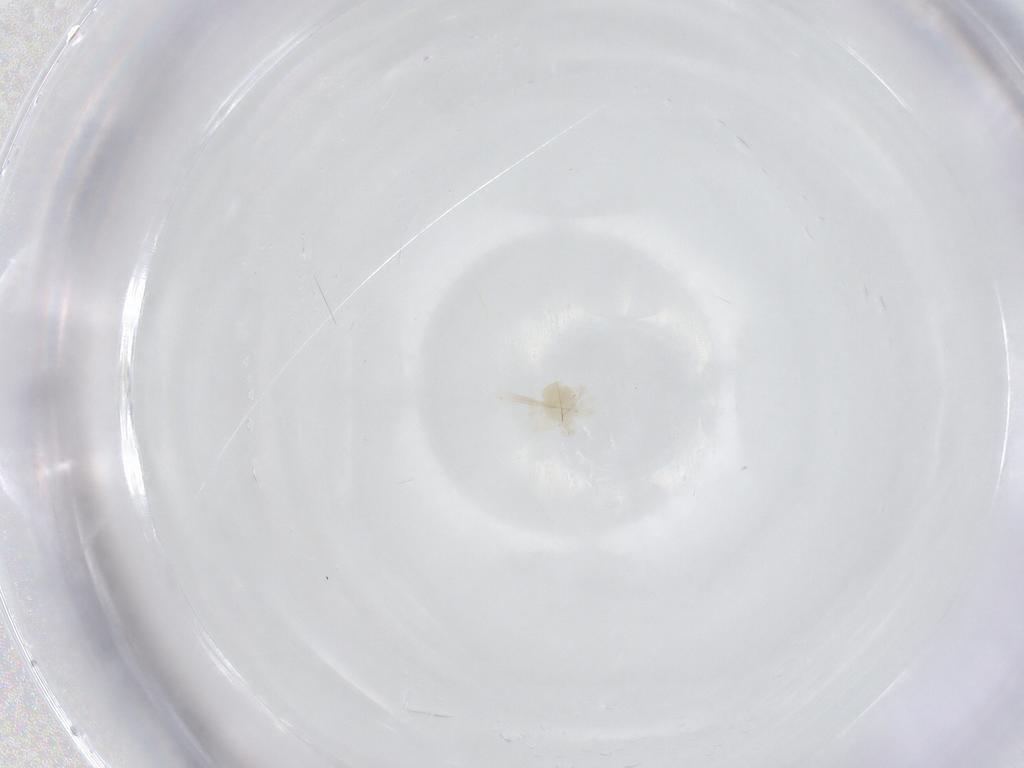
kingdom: Animalia
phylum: Arthropoda
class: Arachnida
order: Trombidiformes
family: Anystidae
